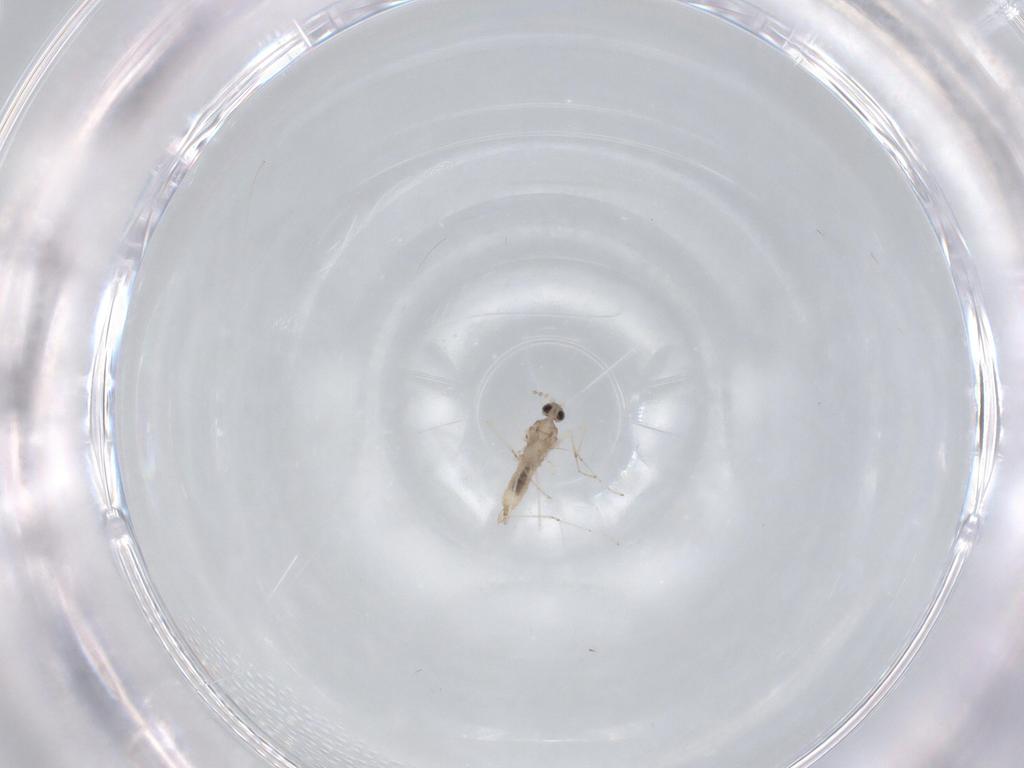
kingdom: Animalia
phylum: Arthropoda
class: Insecta
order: Diptera
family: Cecidomyiidae
